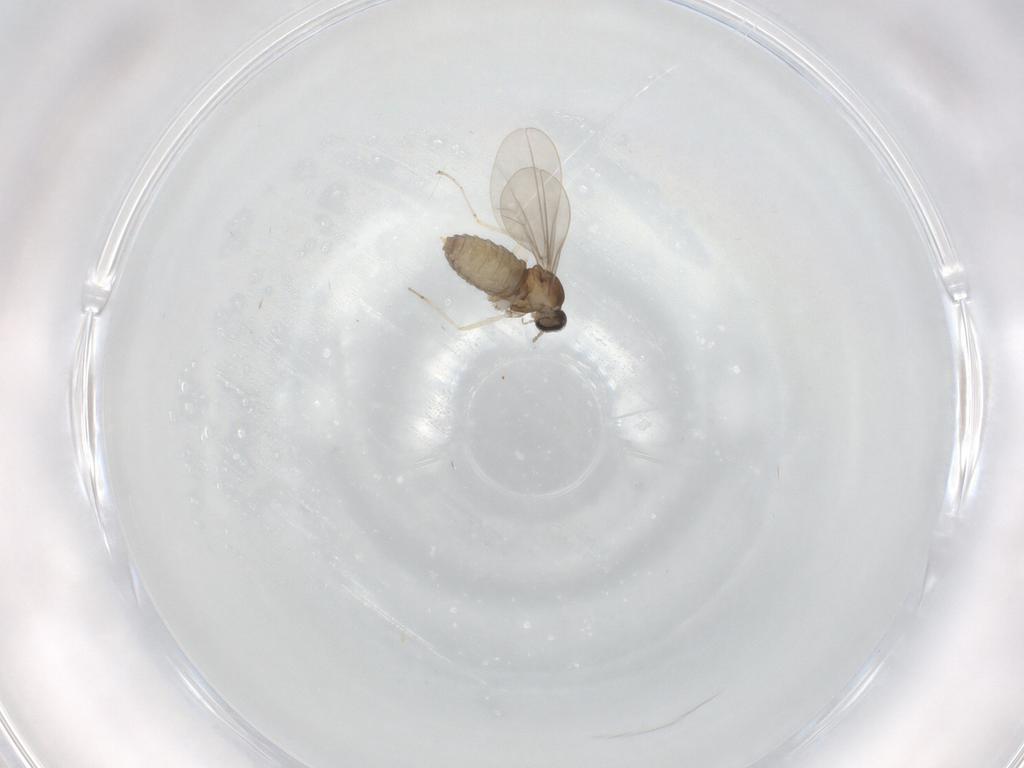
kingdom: Animalia
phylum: Arthropoda
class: Insecta
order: Diptera
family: Cecidomyiidae
